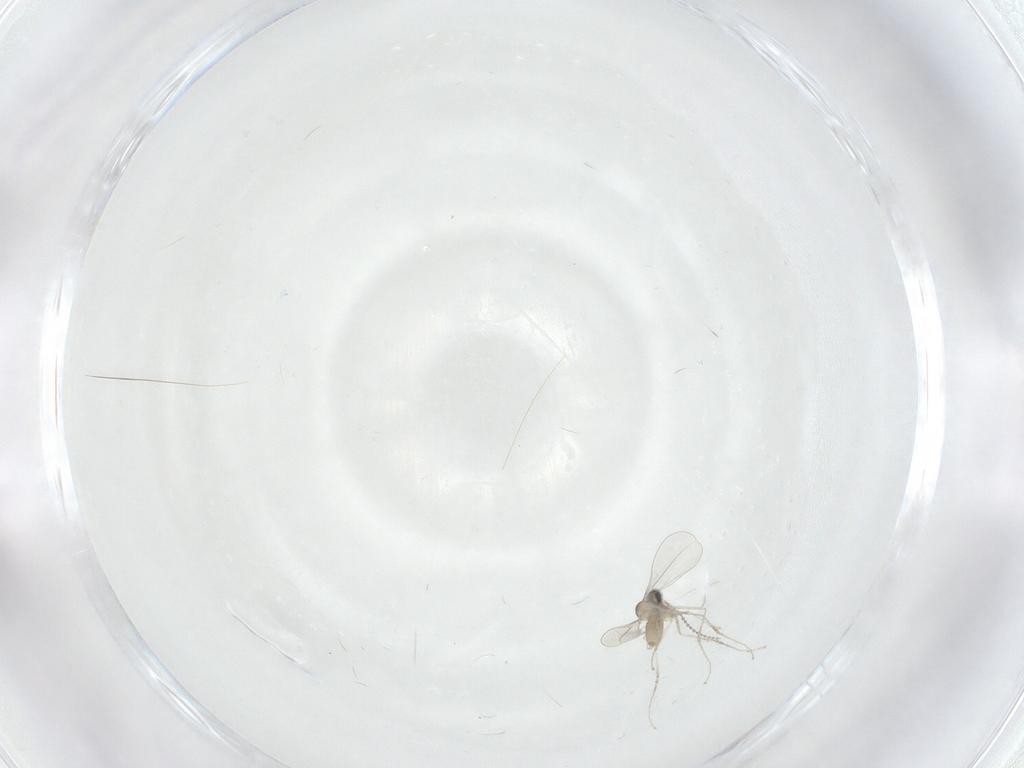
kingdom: Animalia
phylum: Arthropoda
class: Insecta
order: Diptera
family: Cecidomyiidae
